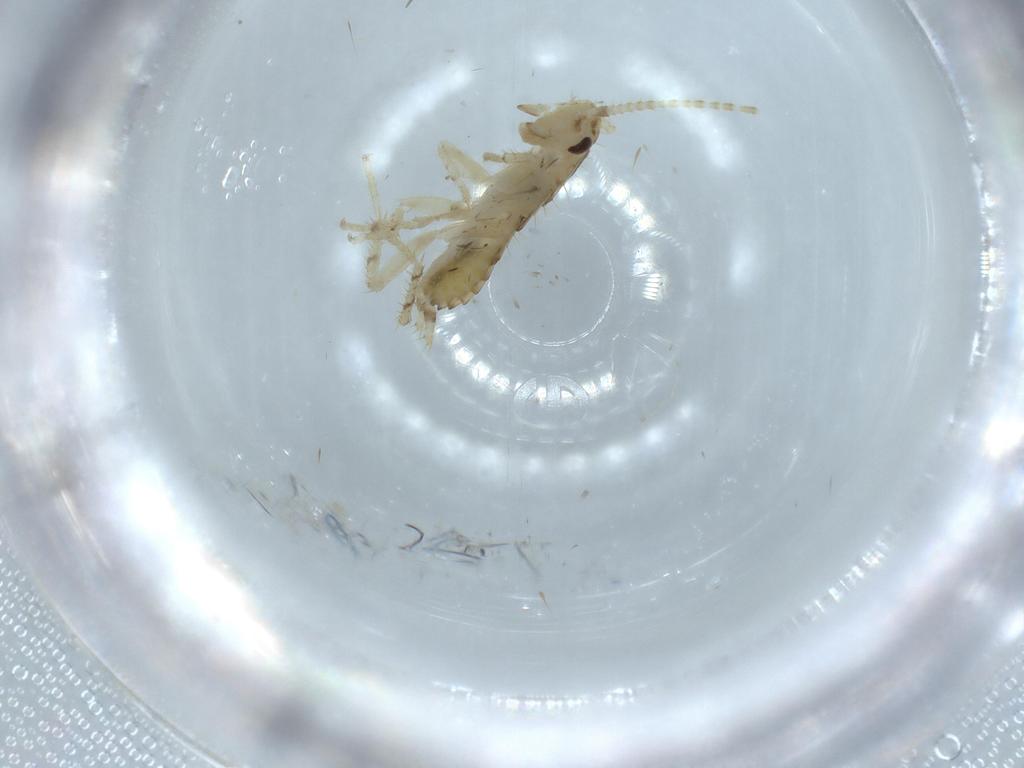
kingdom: Animalia
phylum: Arthropoda
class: Insecta
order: Blattodea
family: Ectobiidae
